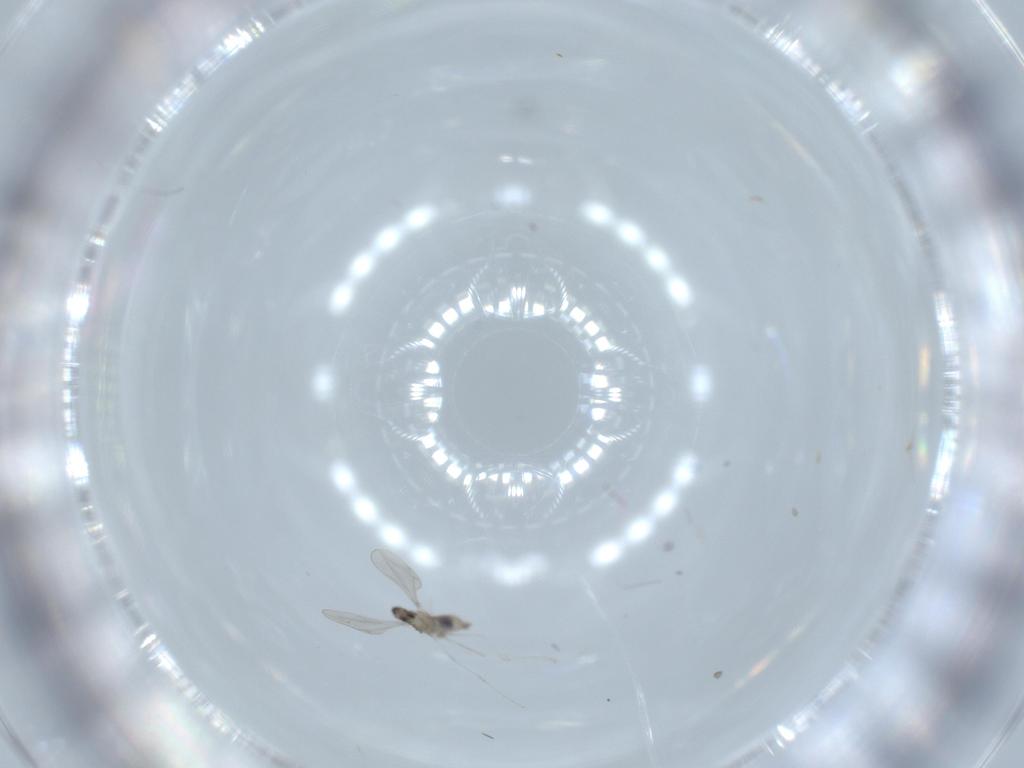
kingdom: Animalia
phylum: Arthropoda
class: Insecta
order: Diptera
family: Cecidomyiidae
